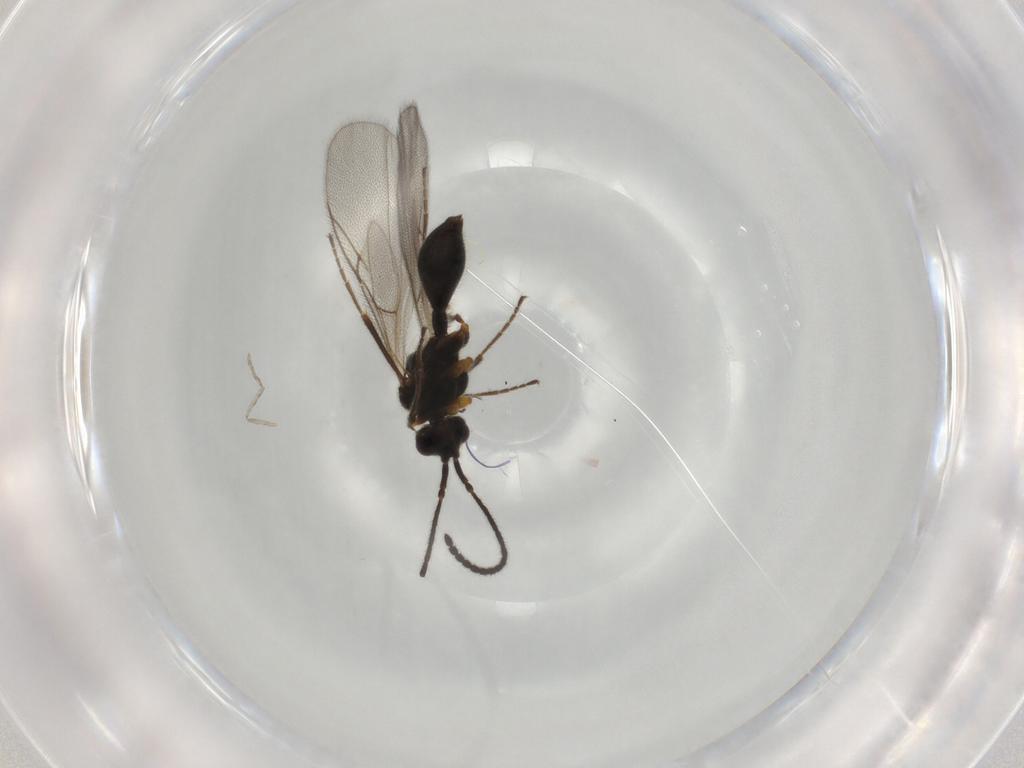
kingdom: Animalia
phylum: Arthropoda
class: Insecta
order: Hymenoptera
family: Diapriidae
